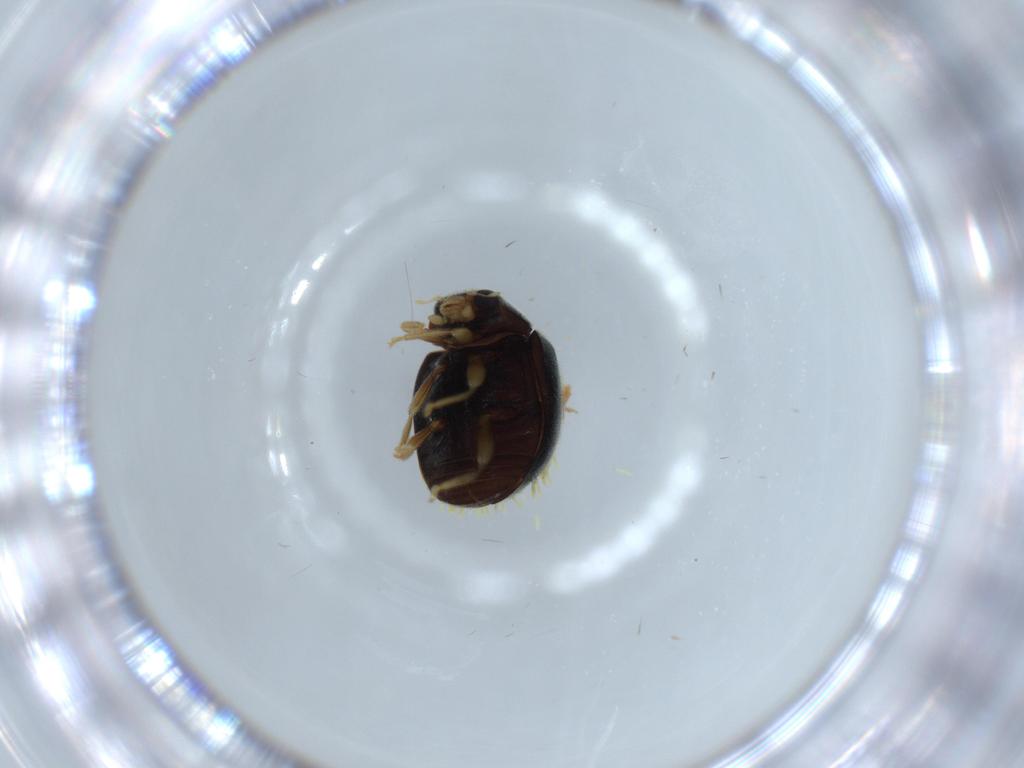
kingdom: Animalia
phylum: Arthropoda
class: Insecta
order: Coleoptera
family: Coccinellidae
